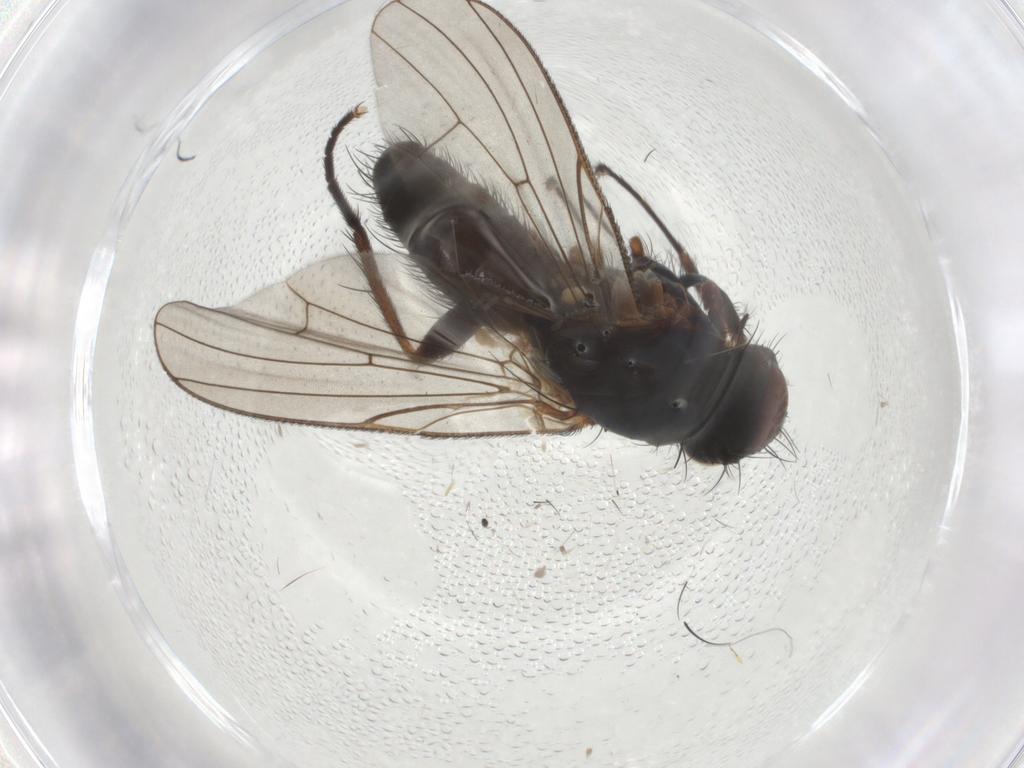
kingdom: Animalia
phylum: Arthropoda
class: Insecta
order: Diptera
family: Anthomyiidae
